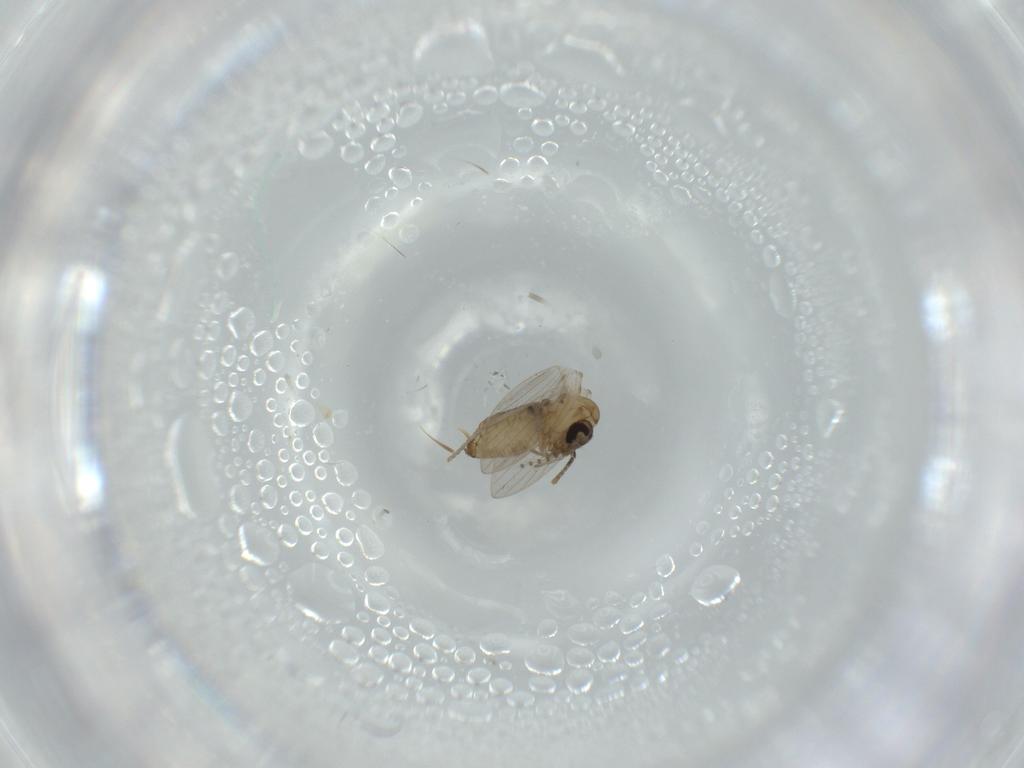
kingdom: Animalia
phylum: Arthropoda
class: Insecta
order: Diptera
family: Psychodidae
